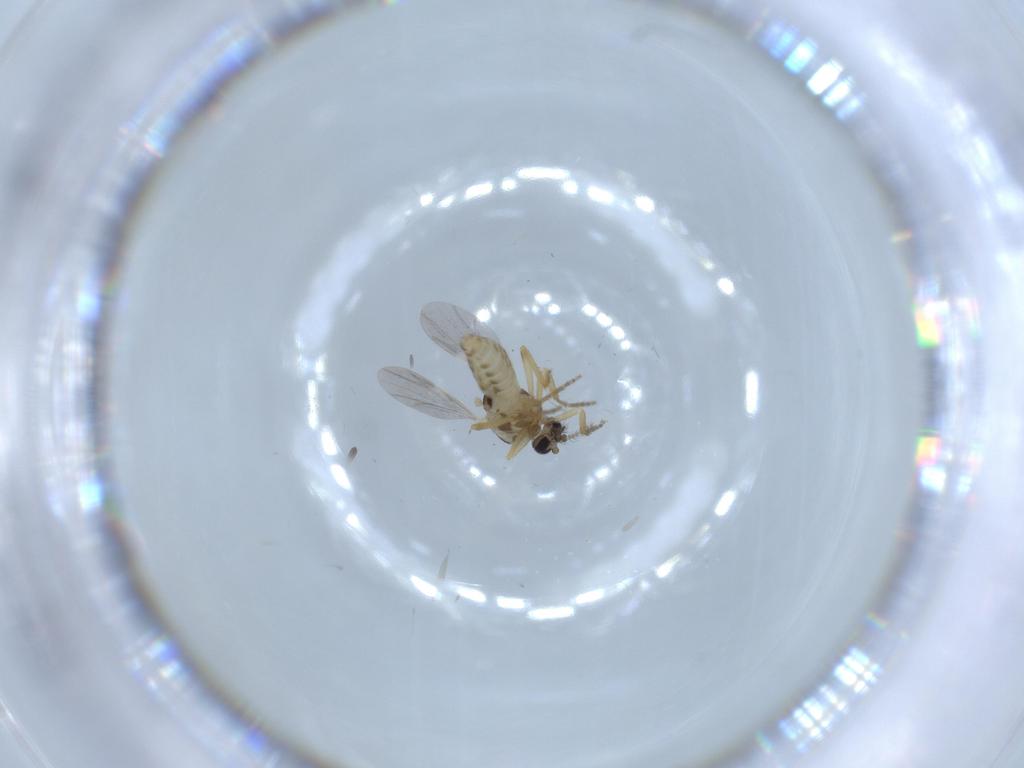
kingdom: Animalia
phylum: Arthropoda
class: Insecta
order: Diptera
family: Ceratopogonidae
